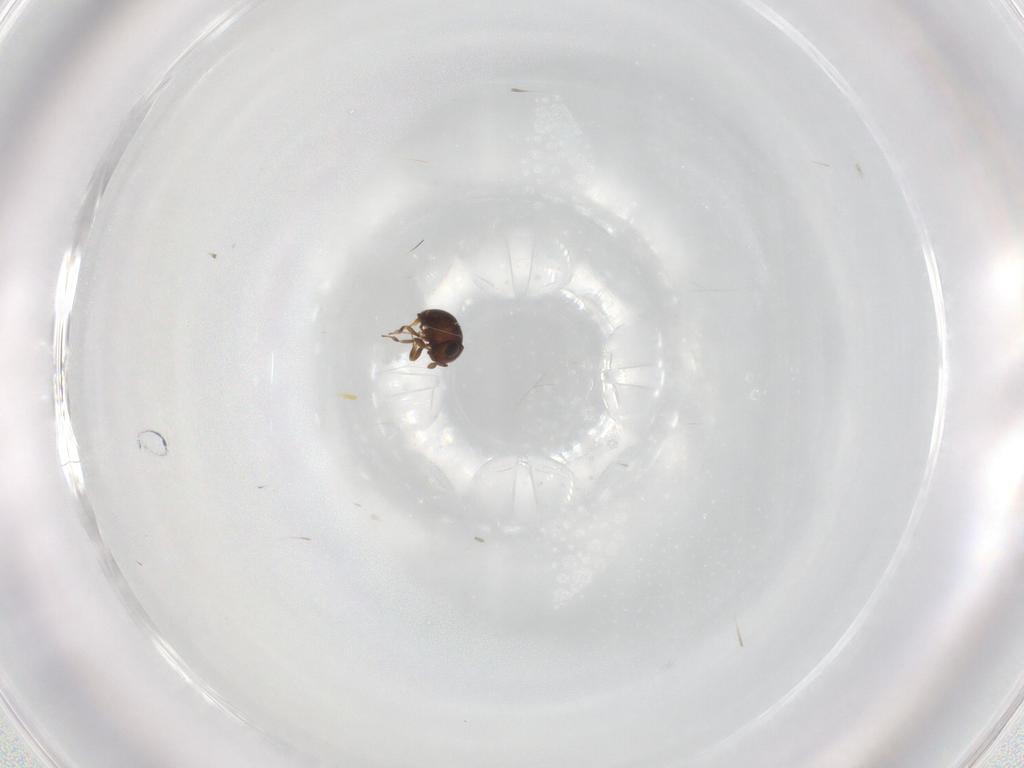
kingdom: Animalia
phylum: Arthropoda
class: Insecta
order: Hymenoptera
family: Scelionidae
